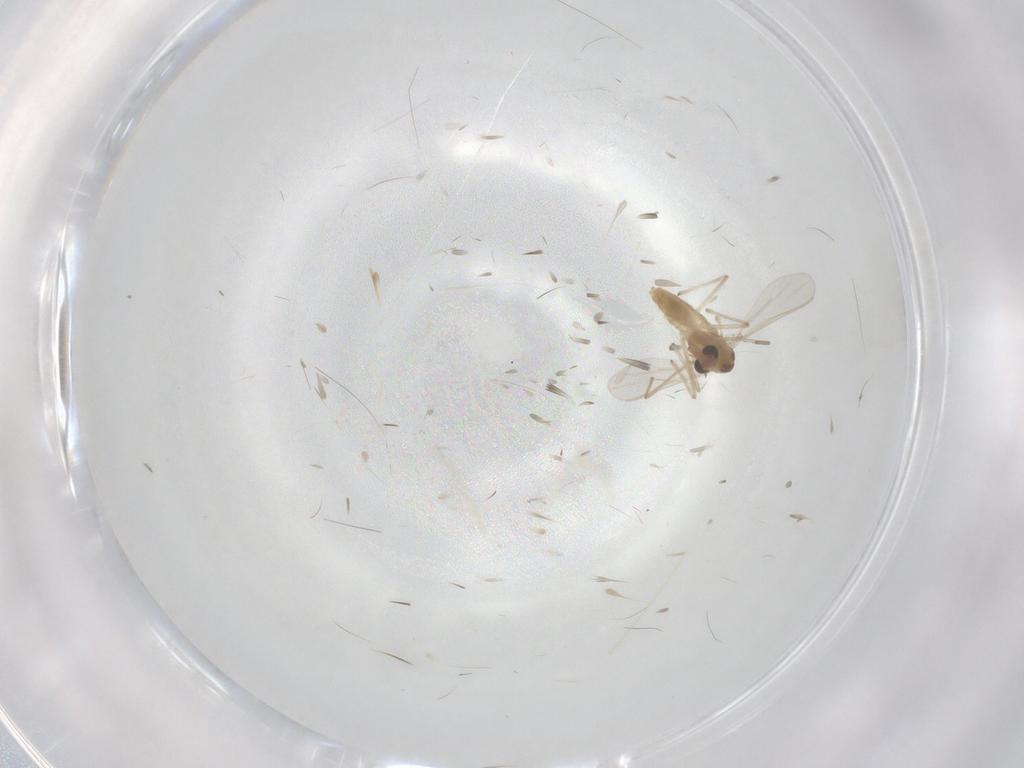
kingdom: Animalia
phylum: Arthropoda
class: Insecta
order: Diptera
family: Chironomidae
